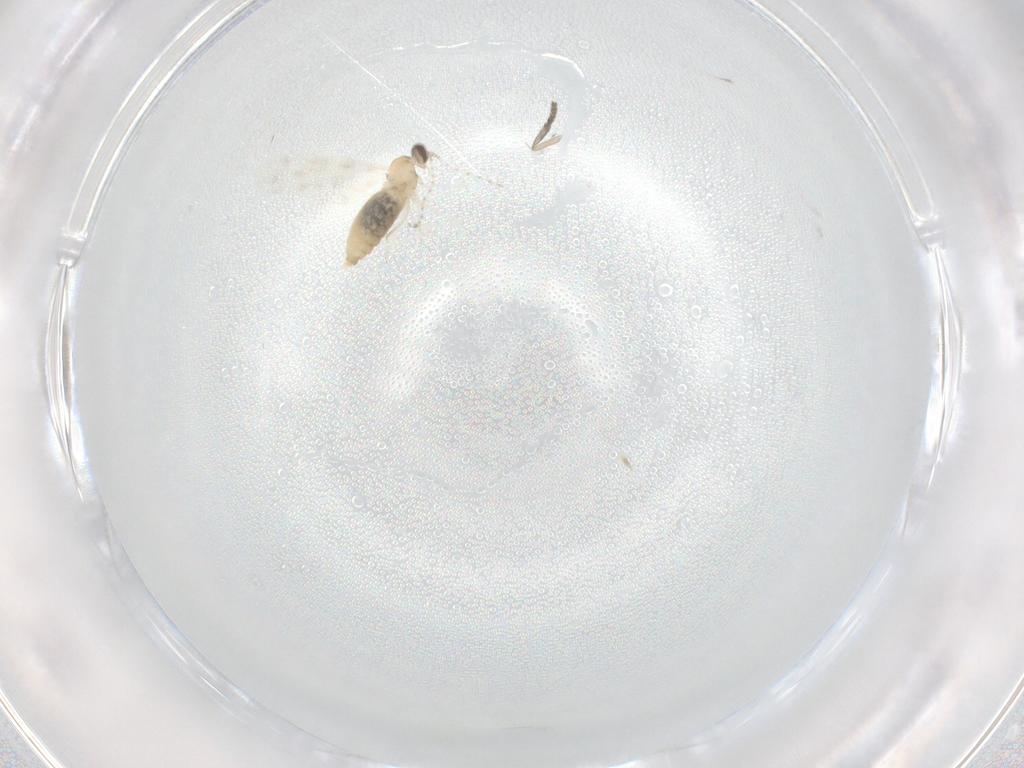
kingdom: Animalia
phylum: Arthropoda
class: Insecta
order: Diptera
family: Cecidomyiidae
